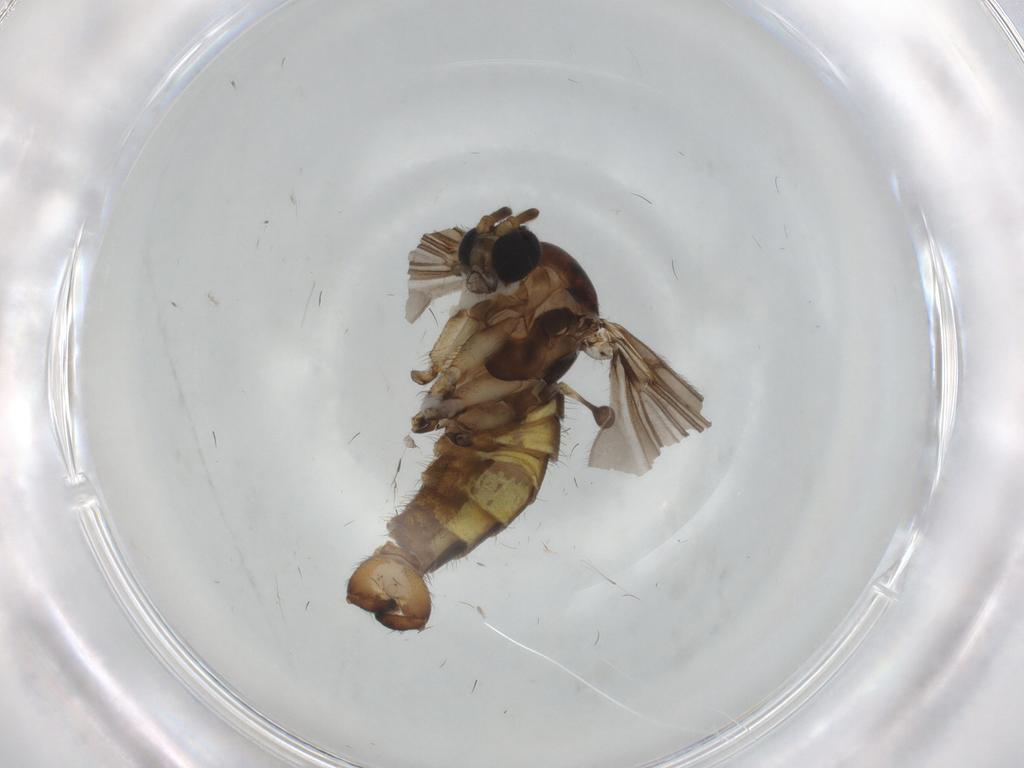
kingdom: Animalia
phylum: Arthropoda
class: Insecta
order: Diptera
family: Sciaridae
